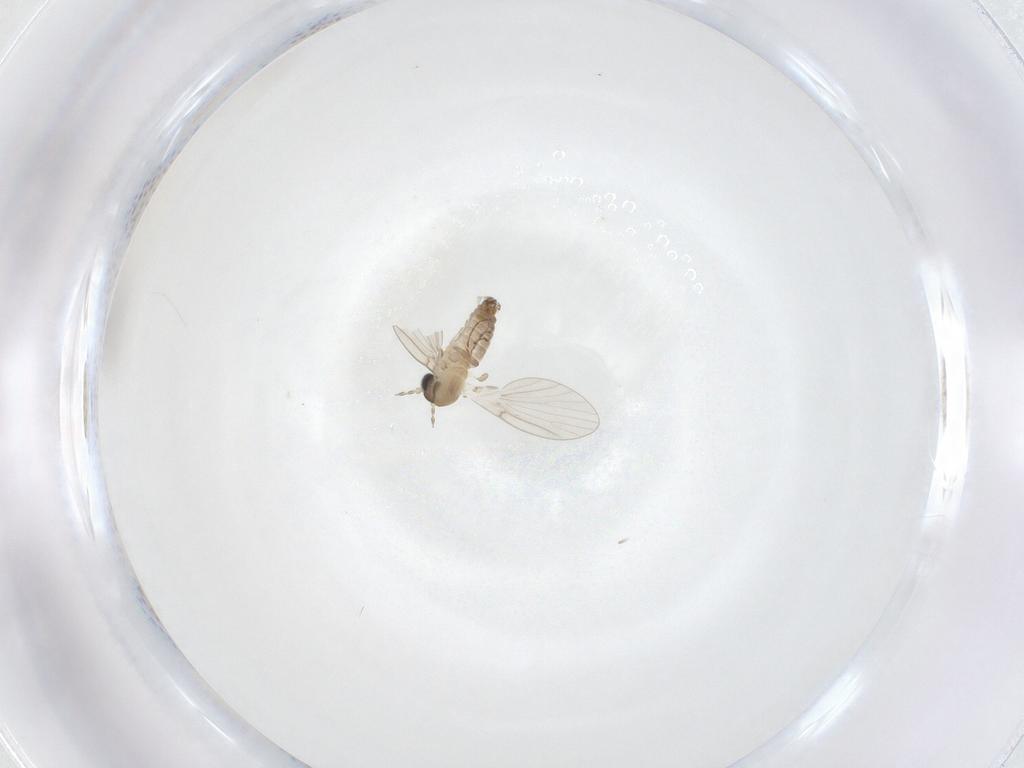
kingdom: Animalia
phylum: Arthropoda
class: Insecta
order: Diptera
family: Psychodidae
